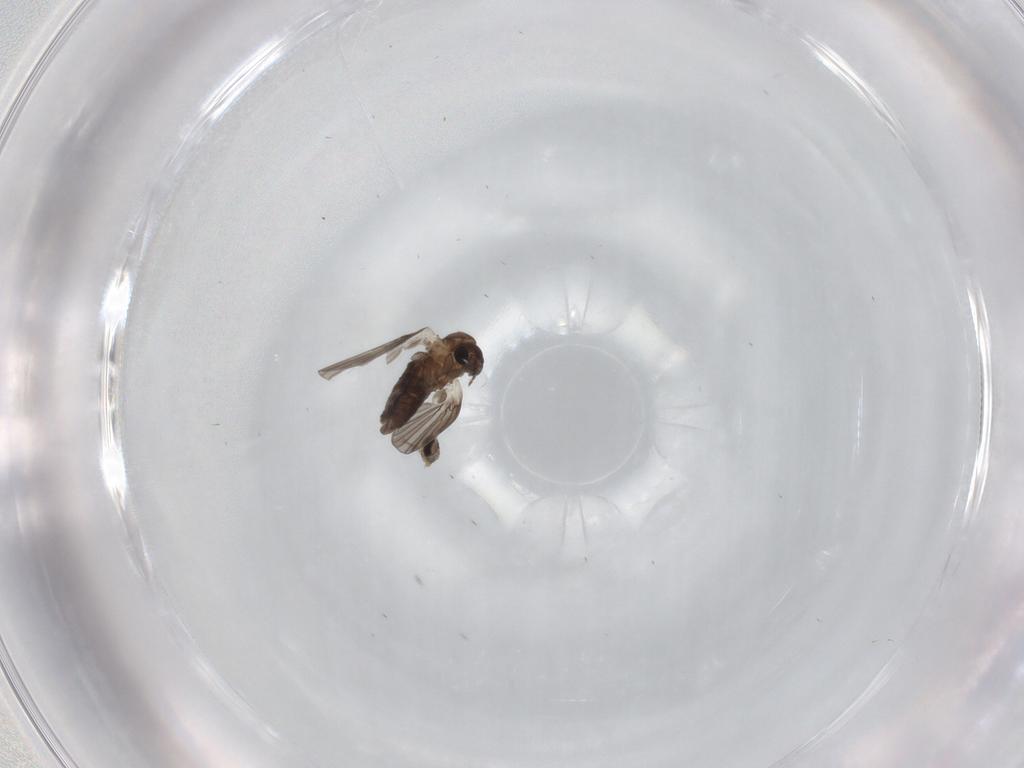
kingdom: Animalia
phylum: Arthropoda
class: Insecta
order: Diptera
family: Cecidomyiidae
